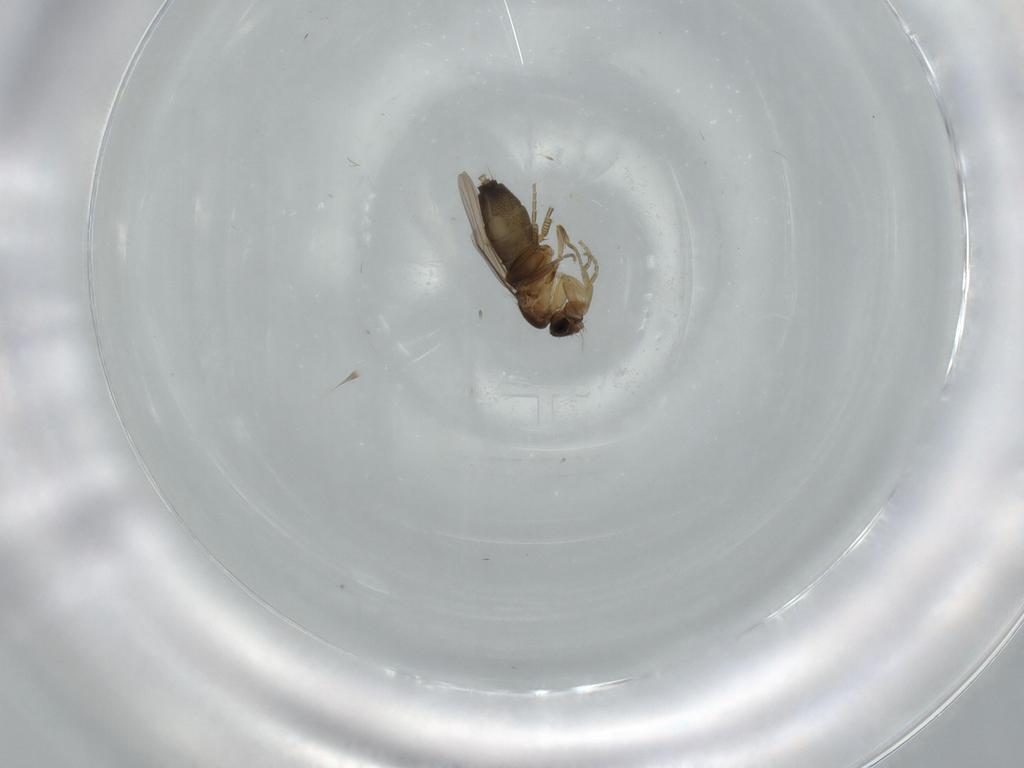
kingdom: Animalia
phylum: Arthropoda
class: Insecta
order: Diptera
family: Phoridae
